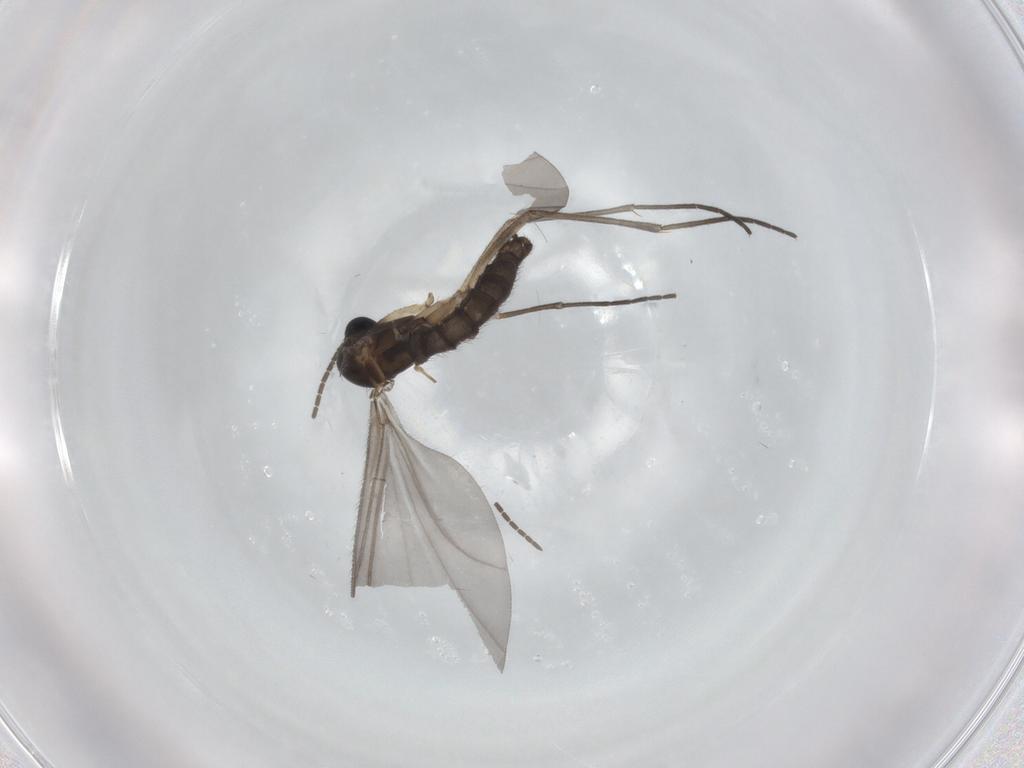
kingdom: Animalia
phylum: Arthropoda
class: Insecta
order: Diptera
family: Sciaridae
